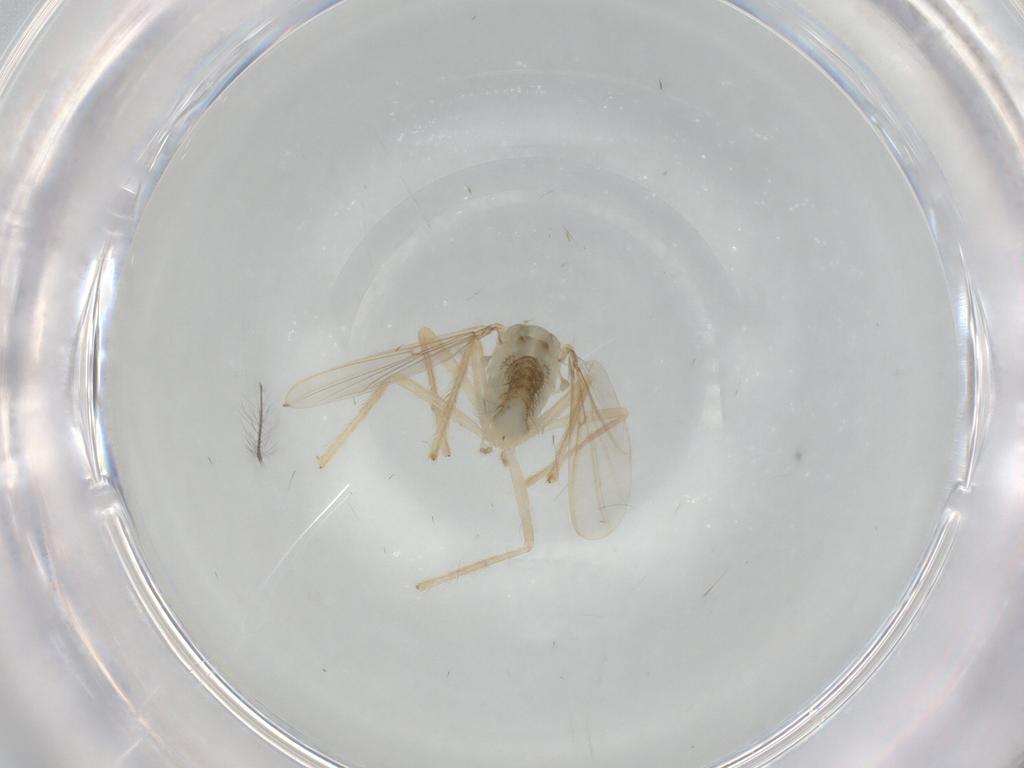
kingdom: Animalia
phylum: Arthropoda
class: Insecta
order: Diptera
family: Chironomidae
